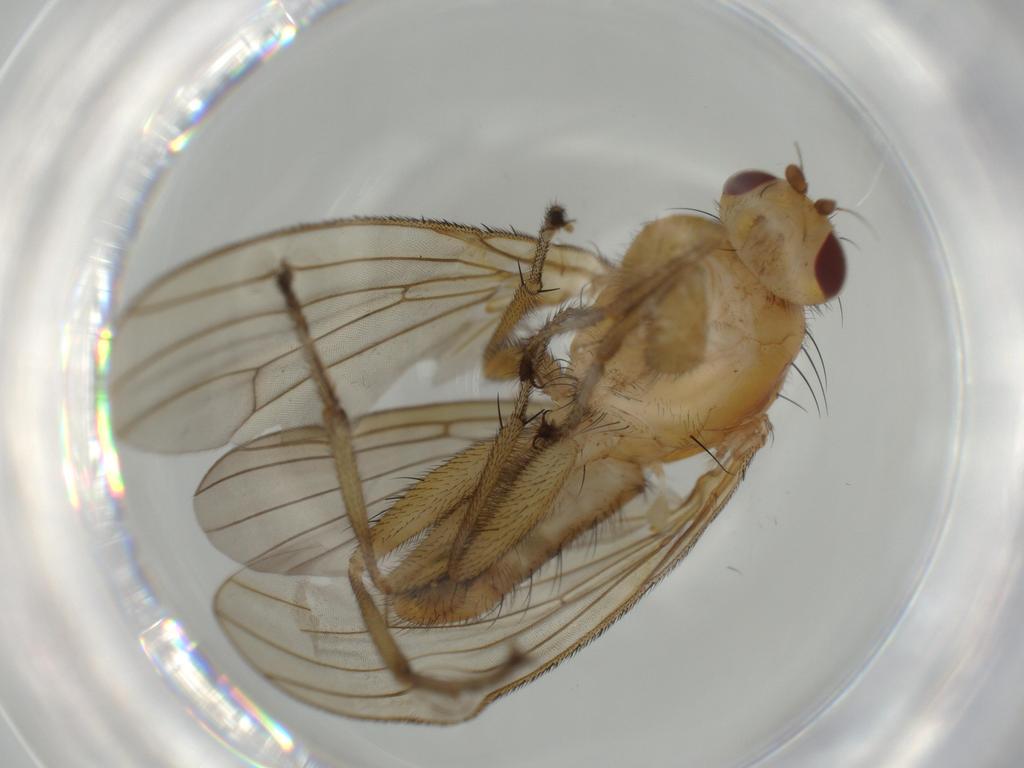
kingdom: Animalia
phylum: Arthropoda
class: Insecta
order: Diptera
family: Heleomyzidae
